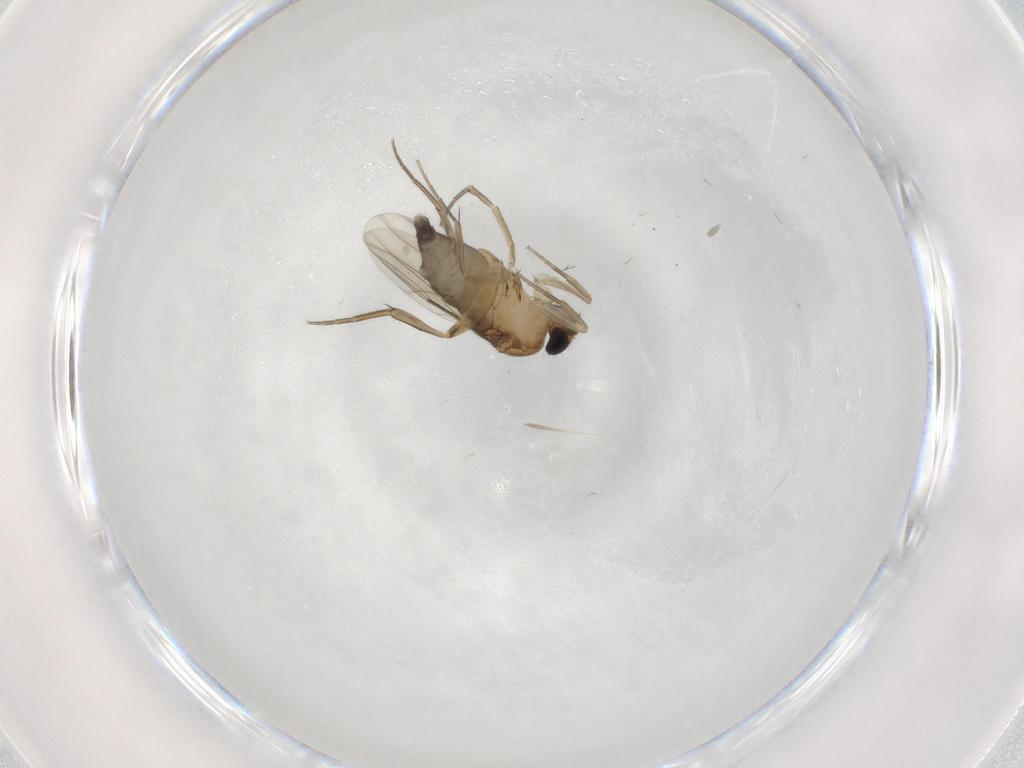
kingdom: Animalia
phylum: Arthropoda
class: Insecta
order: Diptera
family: Phoridae
